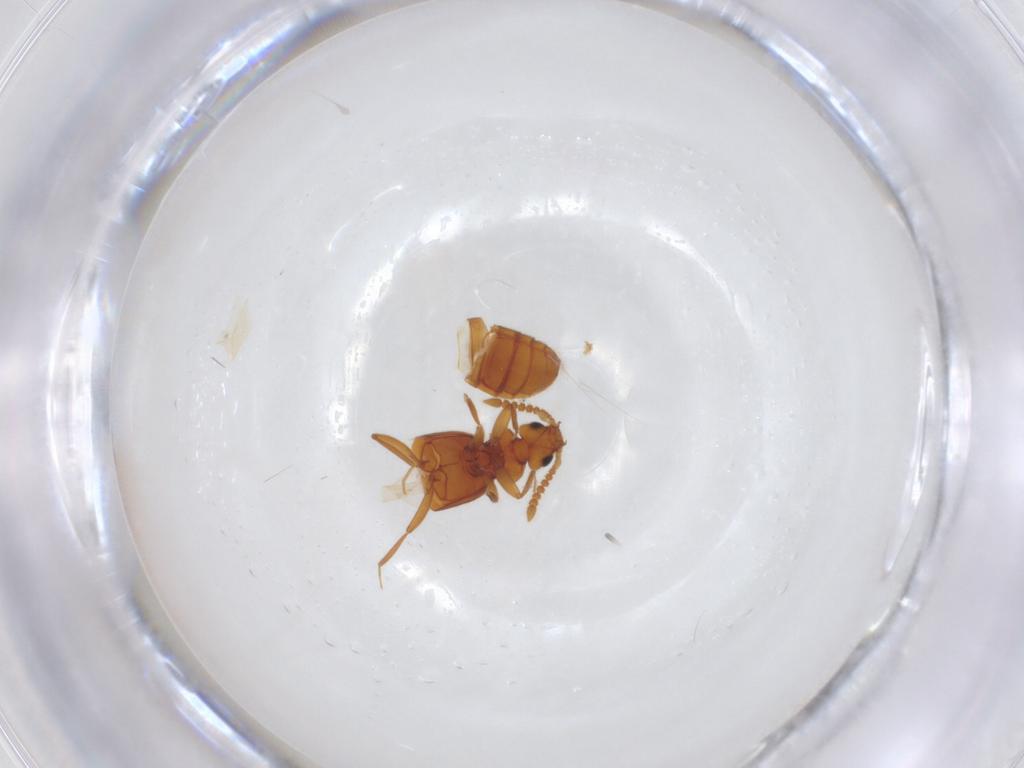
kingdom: Animalia
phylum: Arthropoda
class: Insecta
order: Coleoptera
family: Staphylinidae
